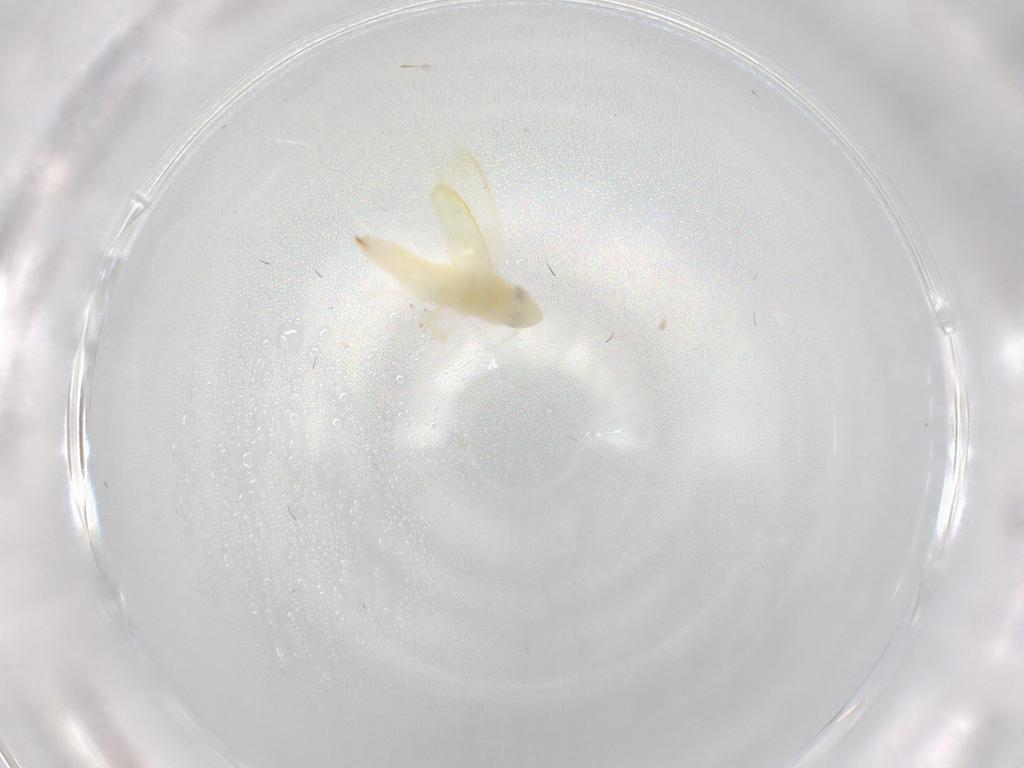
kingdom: Animalia
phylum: Arthropoda
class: Insecta
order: Hemiptera
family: Cicadellidae
